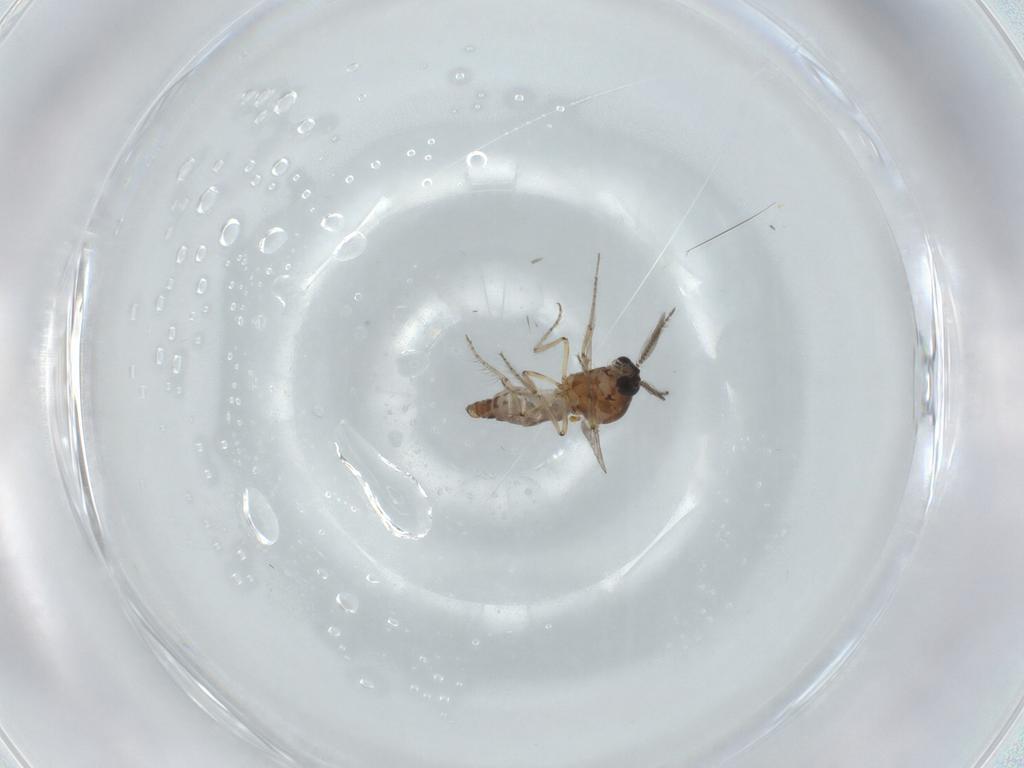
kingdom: Animalia
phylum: Arthropoda
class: Insecta
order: Diptera
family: Ceratopogonidae
